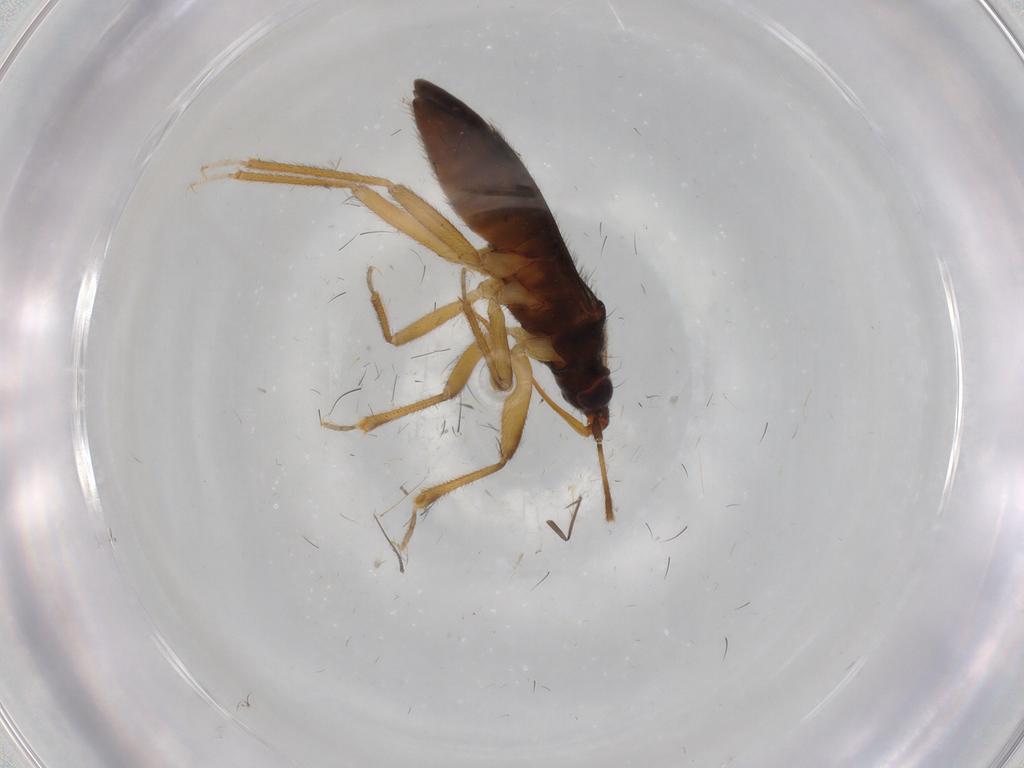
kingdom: Animalia
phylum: Arthropoda
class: Insecta
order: Hemiptera
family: Anthocoridae
